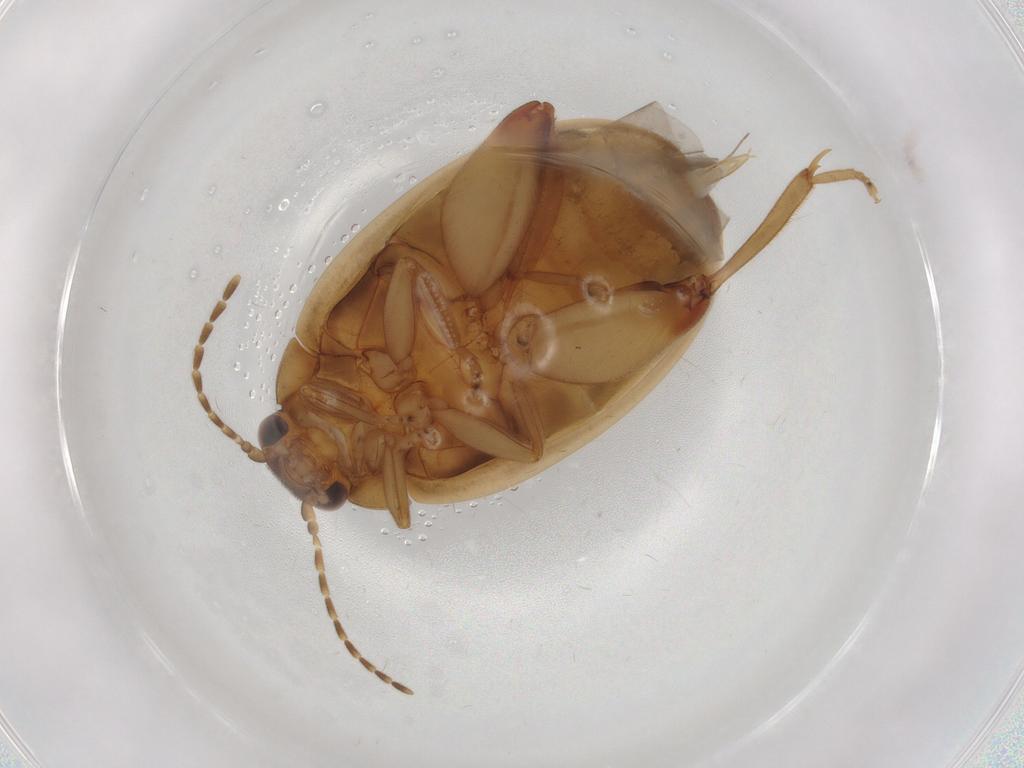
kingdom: Animalia
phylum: Arthropoda
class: Insecta
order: Coleoptera
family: Scirtidae
